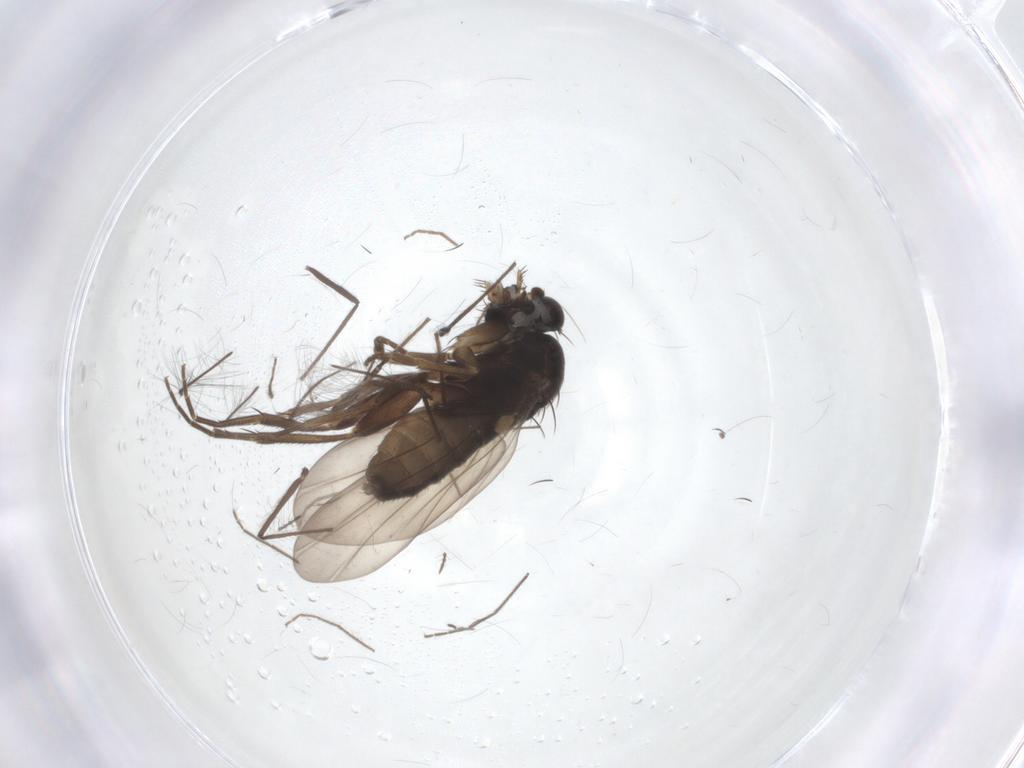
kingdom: Animalia
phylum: Arthropoda
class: Insecta
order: Diptera
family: Phoridae
